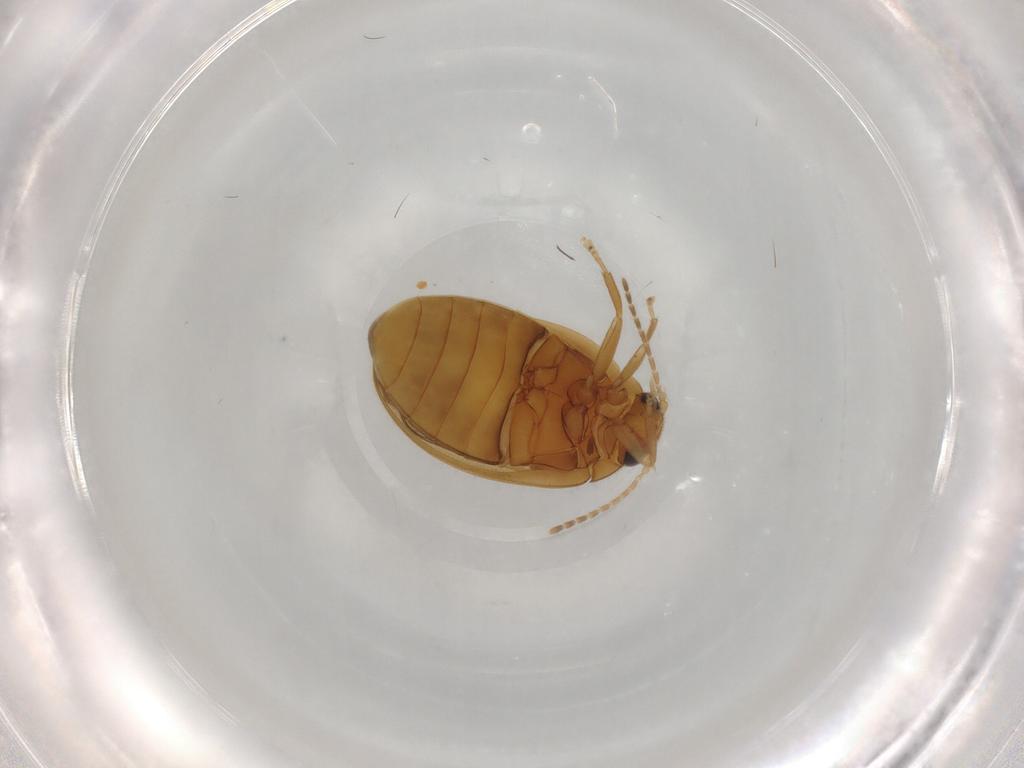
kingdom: Animalia
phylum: Arthropoda
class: Insecta
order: Coleoptera
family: Scirtidae
